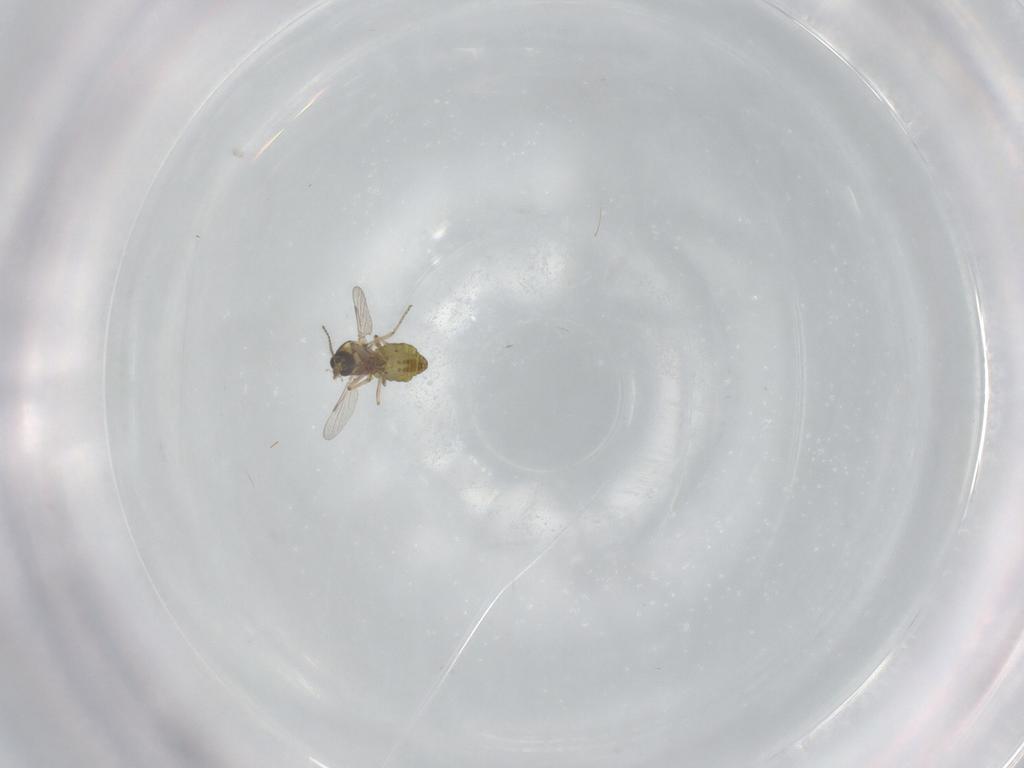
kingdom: Animalia
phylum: Arthropoda
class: Insecta
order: Diptera
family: Ceratopogonidae
